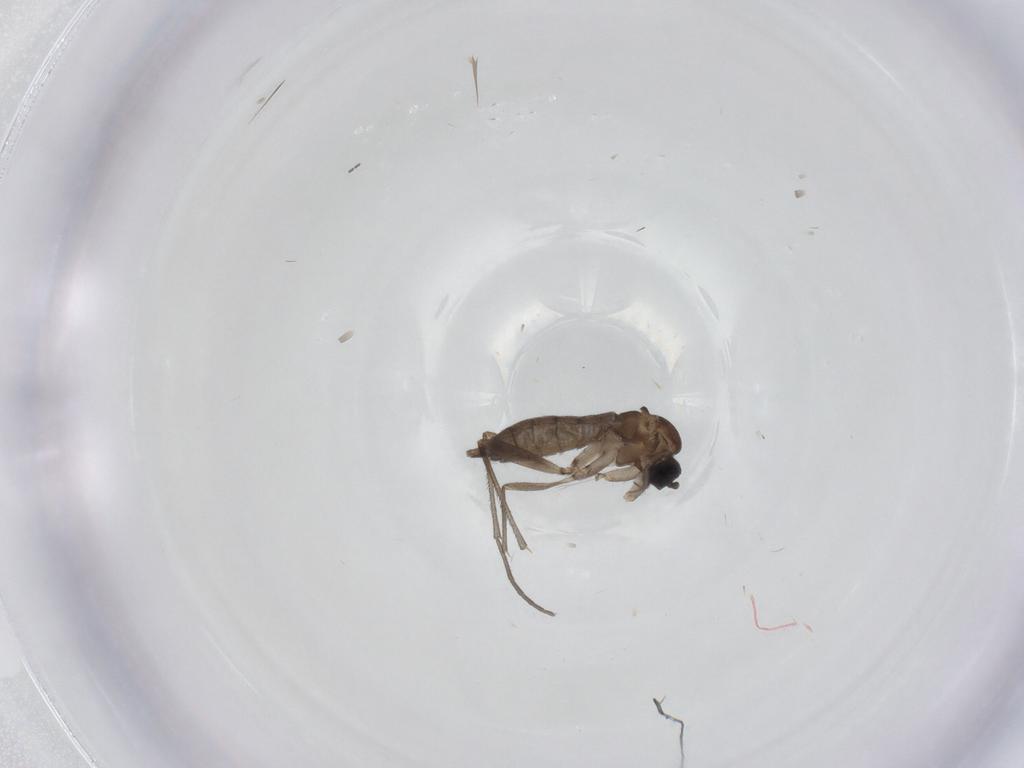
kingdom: Animalia
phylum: Arthropoda
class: Insecta
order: Diptera
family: Sciaridae
